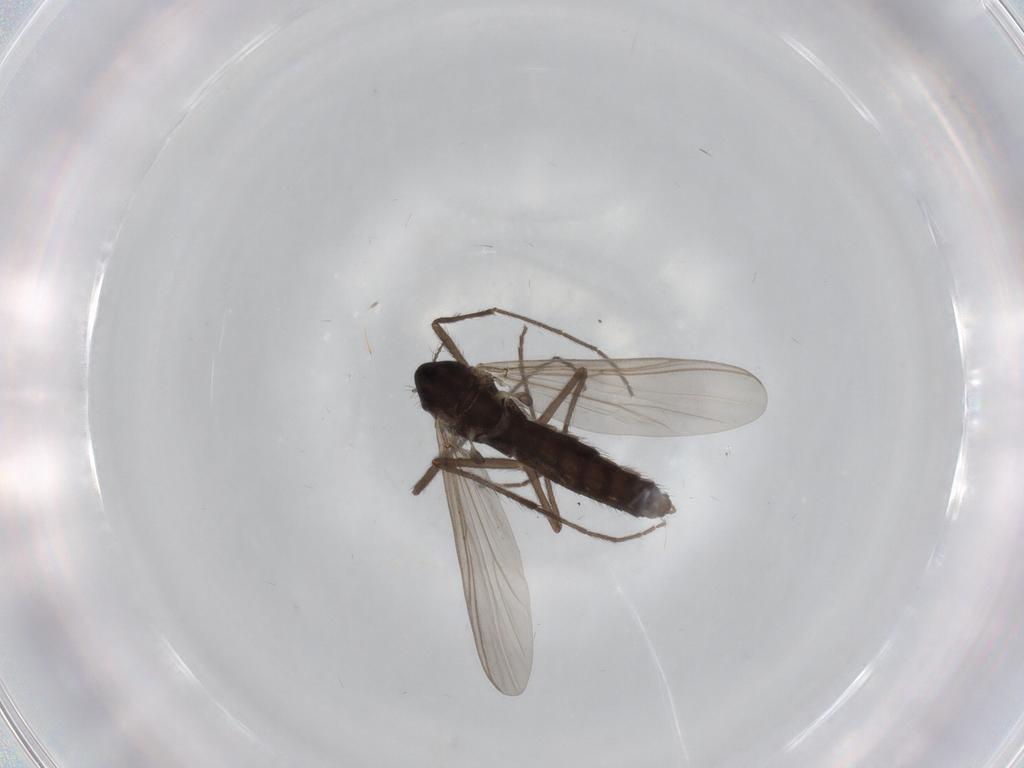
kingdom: Animalia
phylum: Arthropoda
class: Insecta
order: Diptera
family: Chironomidae
